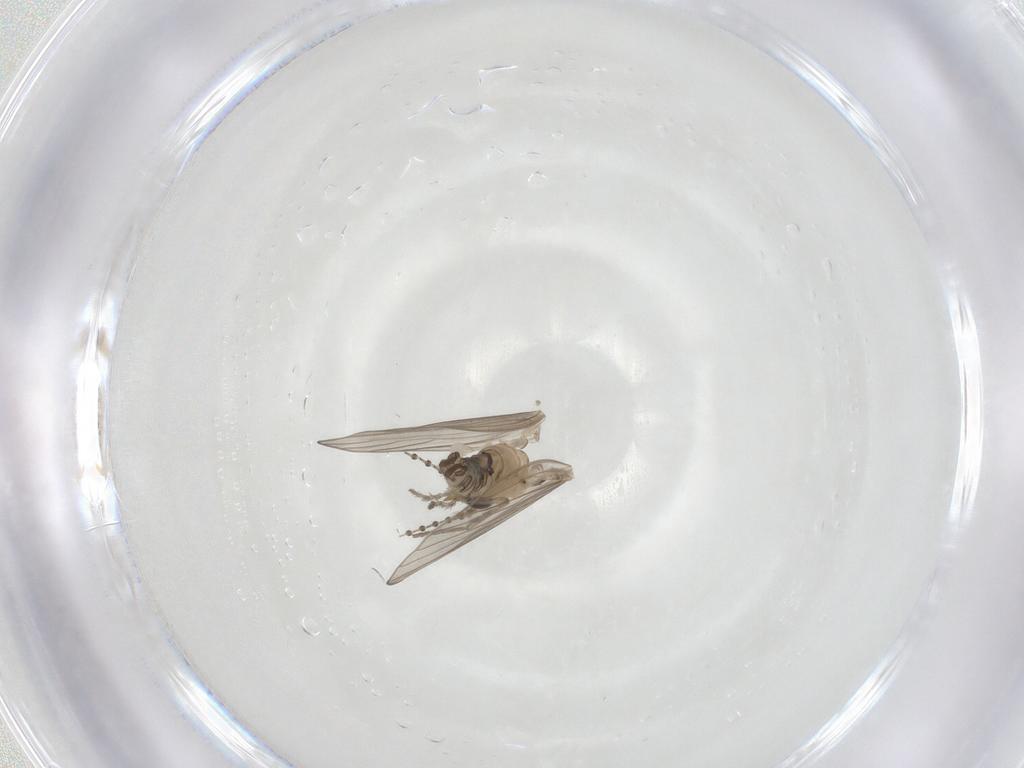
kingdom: Animalia
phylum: Arthropoda
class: Insecta
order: Diptera
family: Psychodidae
